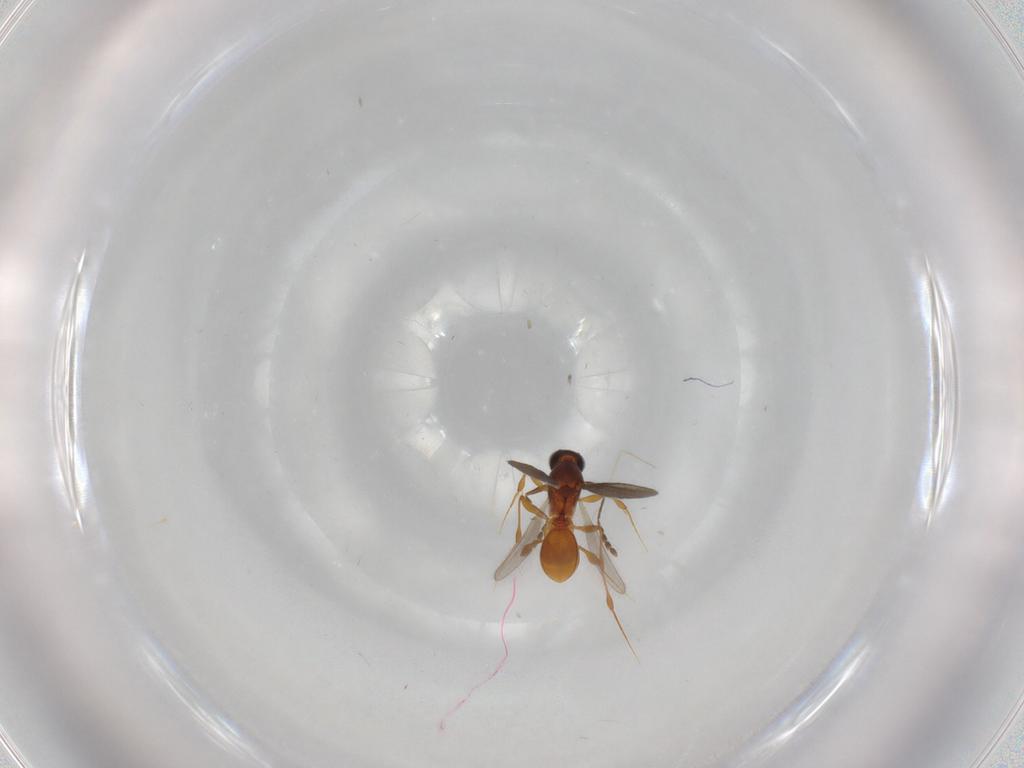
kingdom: Animalia
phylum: Arthropoda
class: Insecta
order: Hymenoptera
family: Platygastridae
